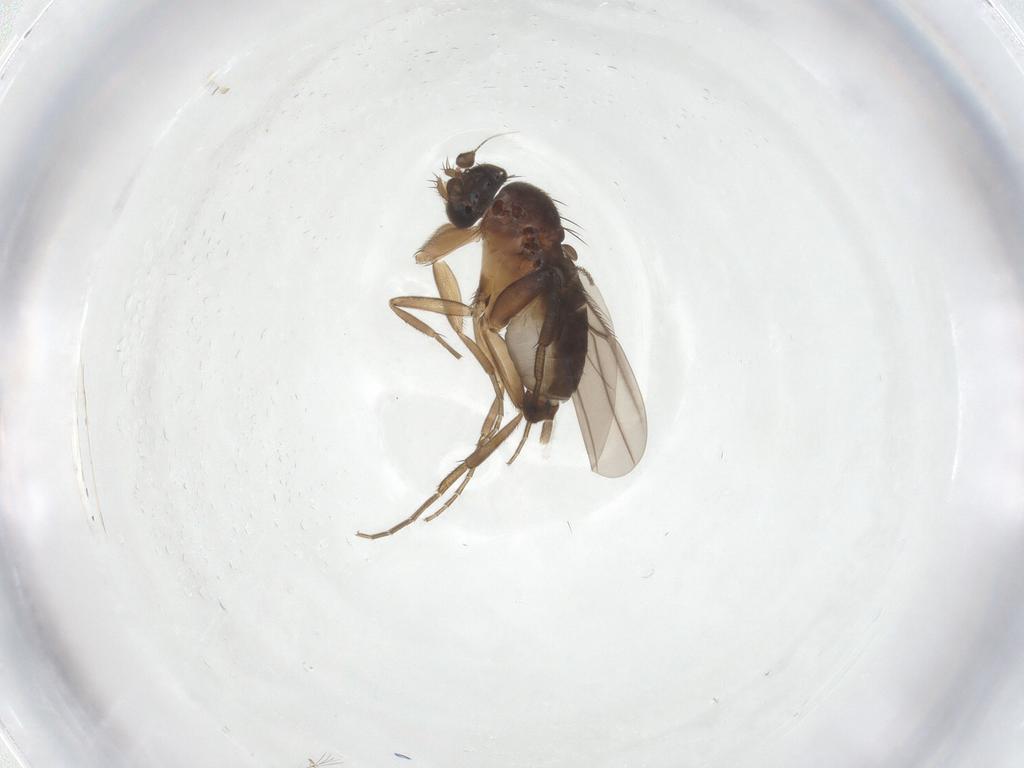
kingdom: Animalia
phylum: Arthropoda
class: Insecta
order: Diptera
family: Cecidomyiidae
